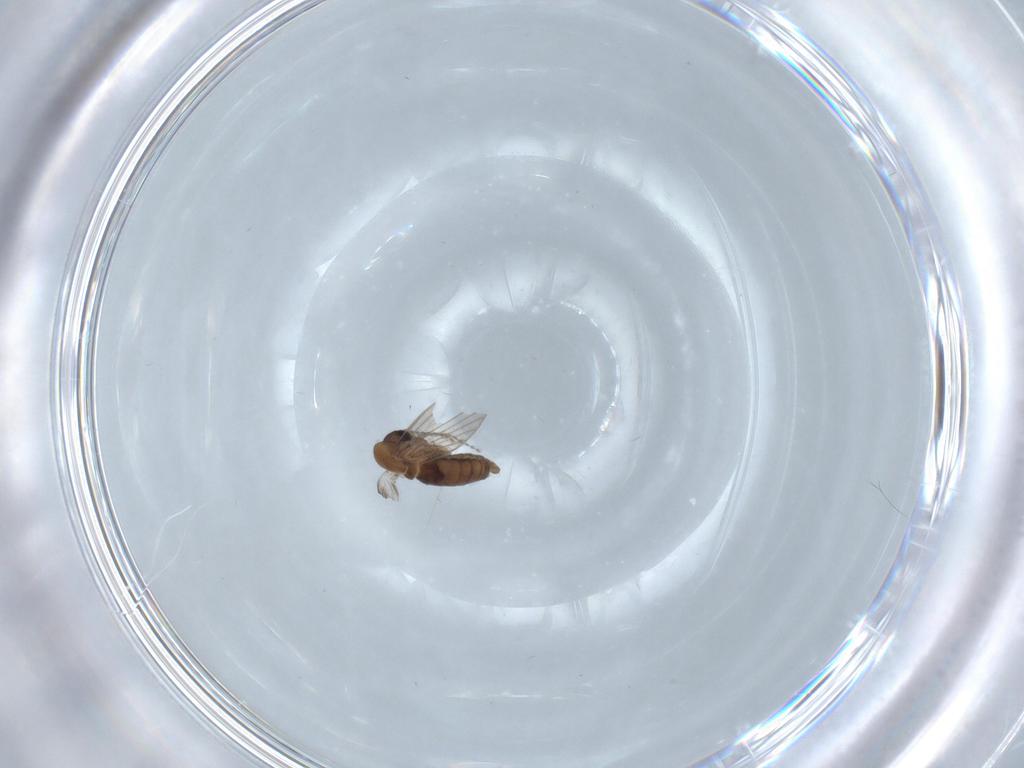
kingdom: Animalia
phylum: Arthropoda
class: Insecta
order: Diptera
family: Psychodidae
